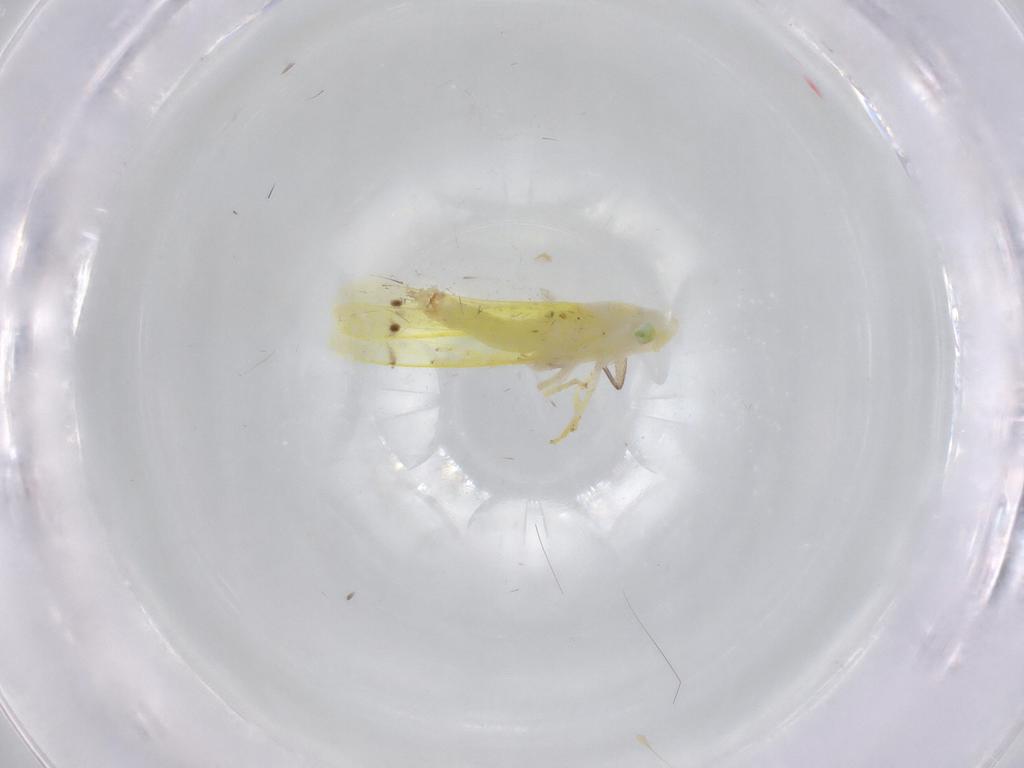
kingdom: Animalia
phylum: Arthropoda
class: Insecta
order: Hemiptera
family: Cicadellidae
